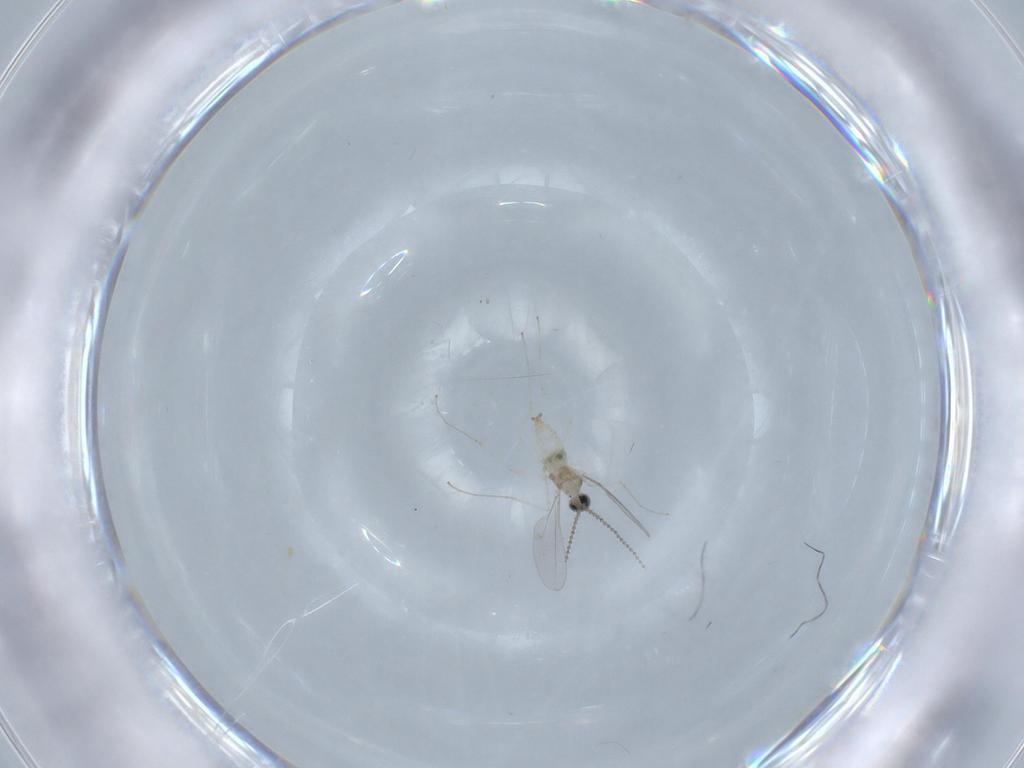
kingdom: Animalia
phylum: Arthropoda
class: Insecta
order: Diptera
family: Cecidomyiidae
